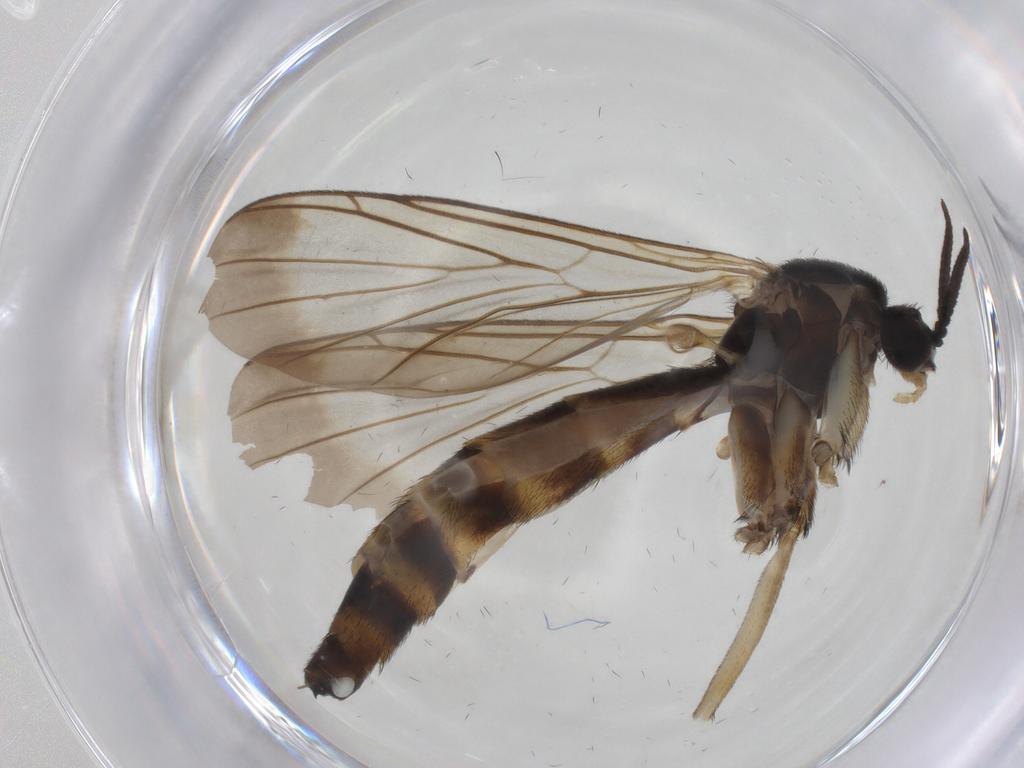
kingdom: Animalia
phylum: Arthropoda
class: Insecta
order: Diptera
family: Keroplatidae
